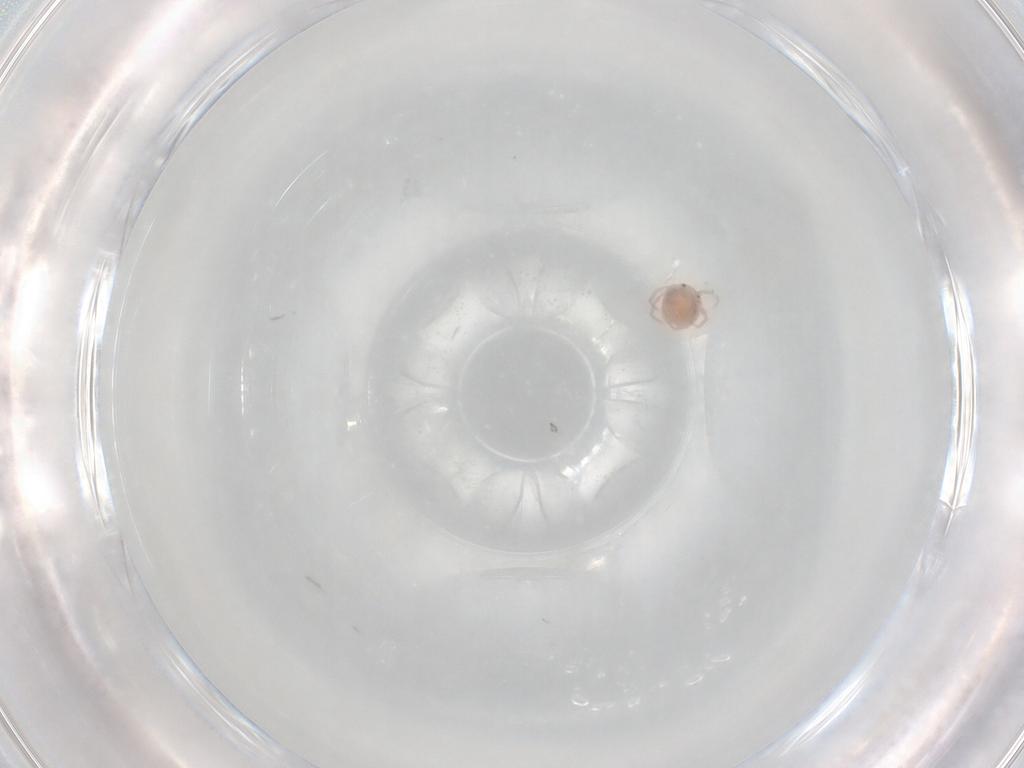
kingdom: Animalia
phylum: Arthropoda
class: Arachnida
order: Trombidiformes
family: Lebertiidae
